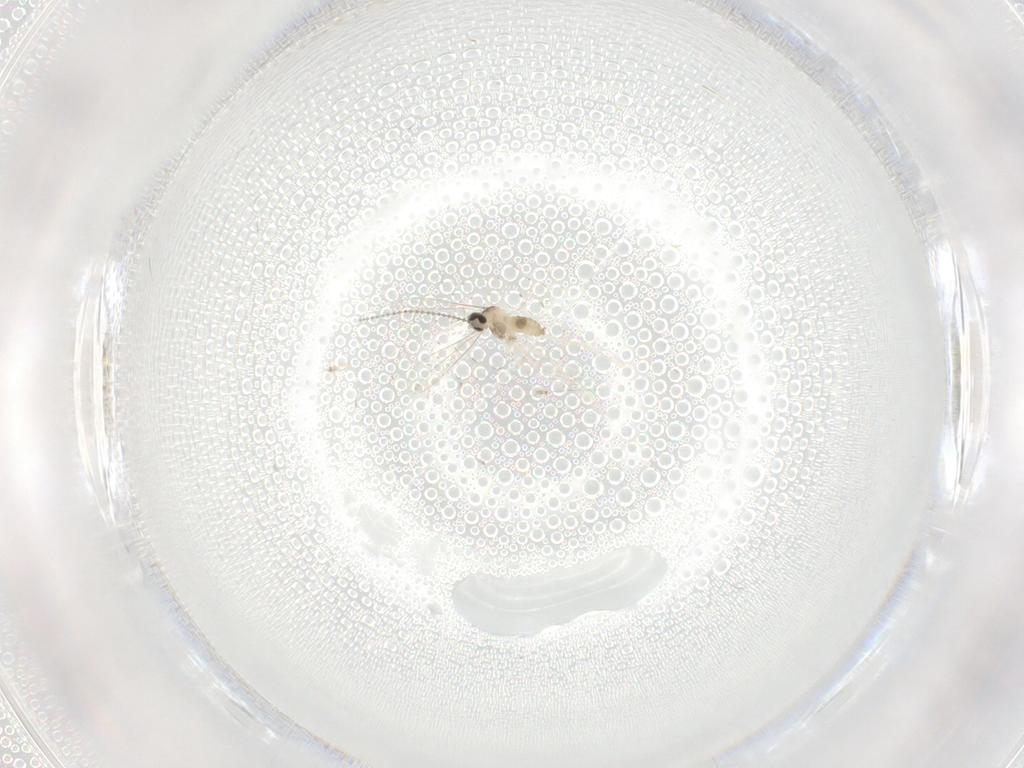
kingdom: Animalia
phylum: Arthropoda
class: Insecta
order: Diptera
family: Cecidomyiidae
